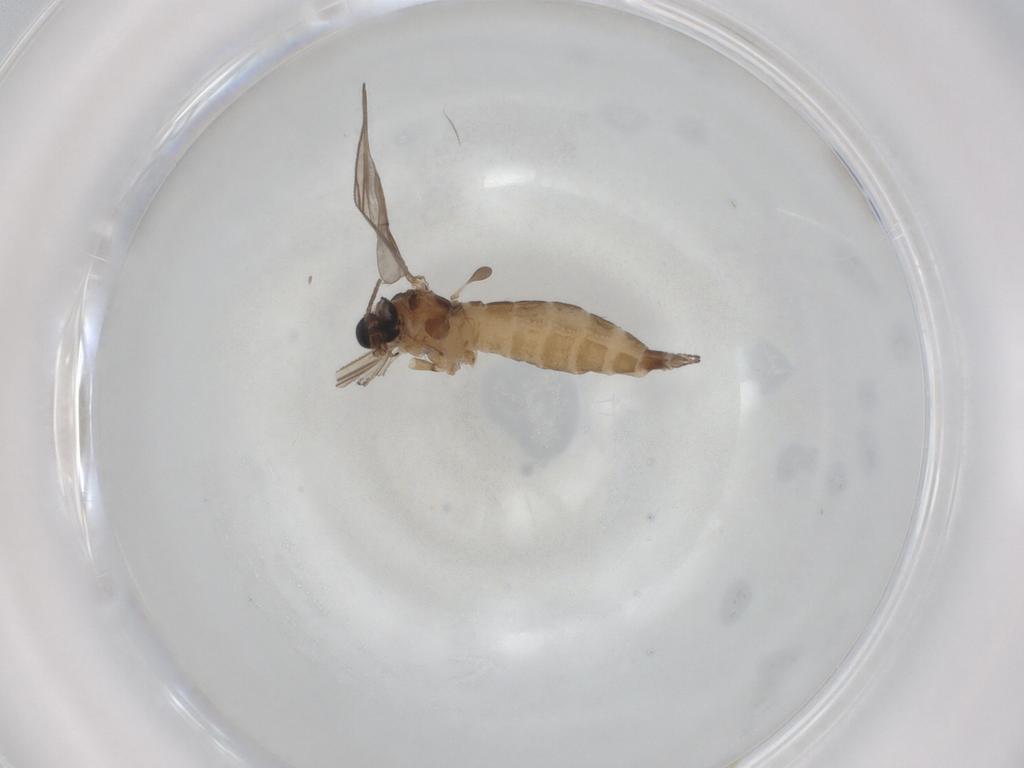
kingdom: Animalia
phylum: Arthropoda
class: Insecta
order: Diptera
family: Sciaridae
